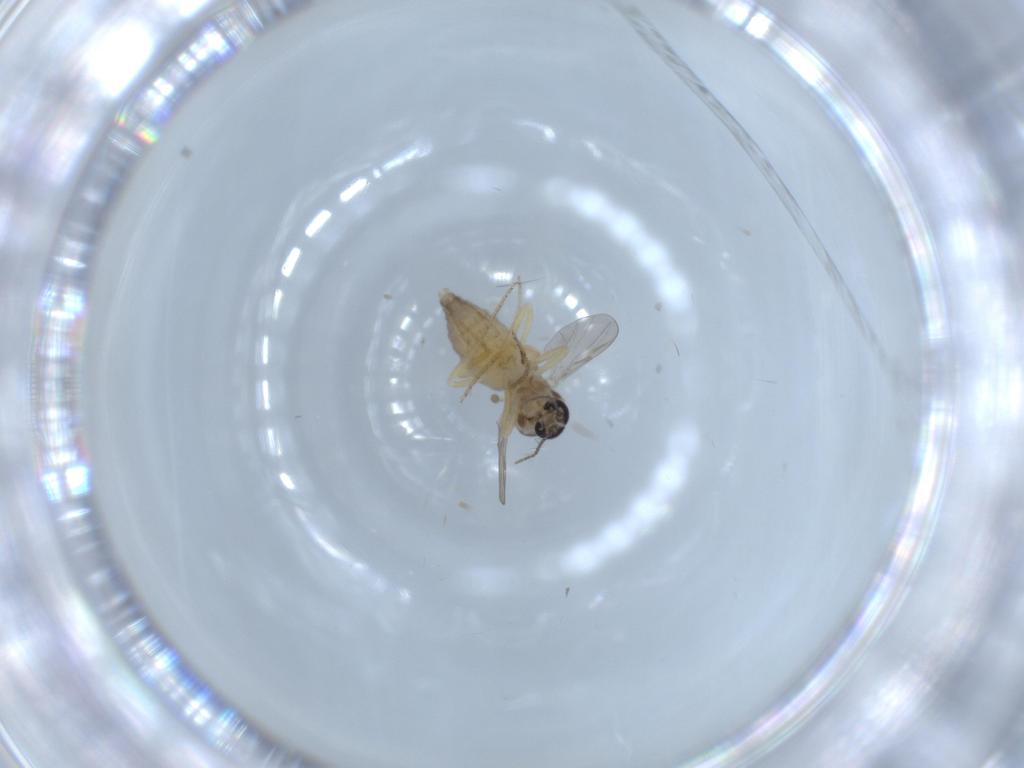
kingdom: Animalia
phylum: Arthropoda
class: Insecta
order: Diptera
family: Ceratopogonidae
